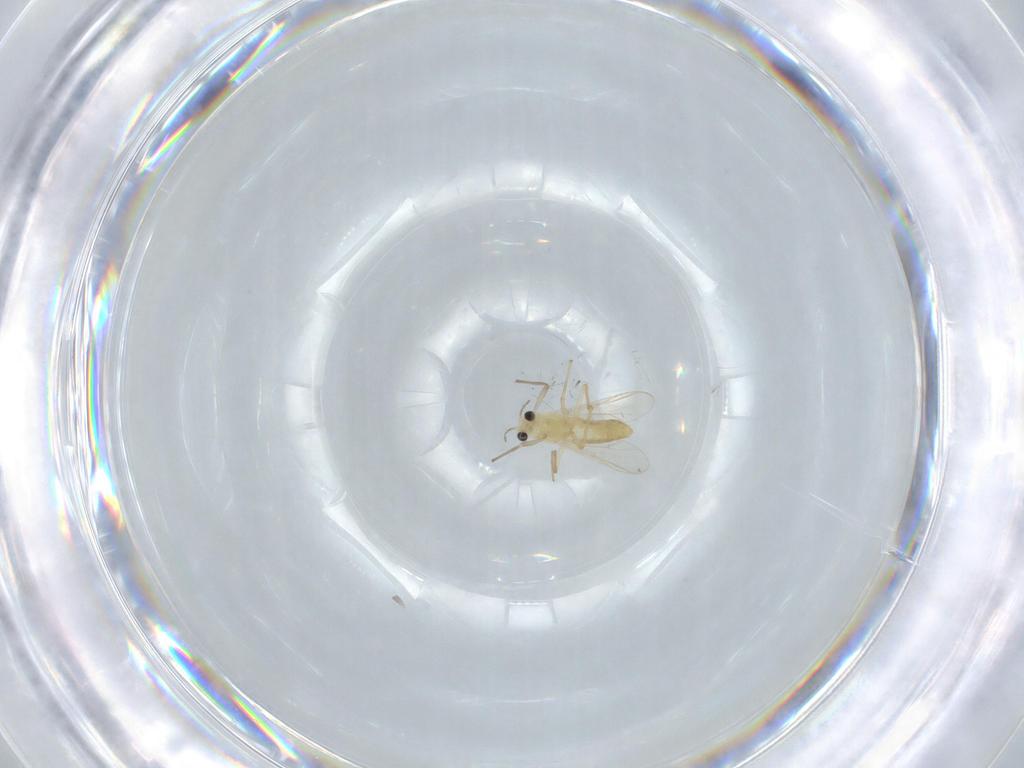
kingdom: Animalia
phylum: Arthropoda
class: Insecta
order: Diptera
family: Chironomidae
